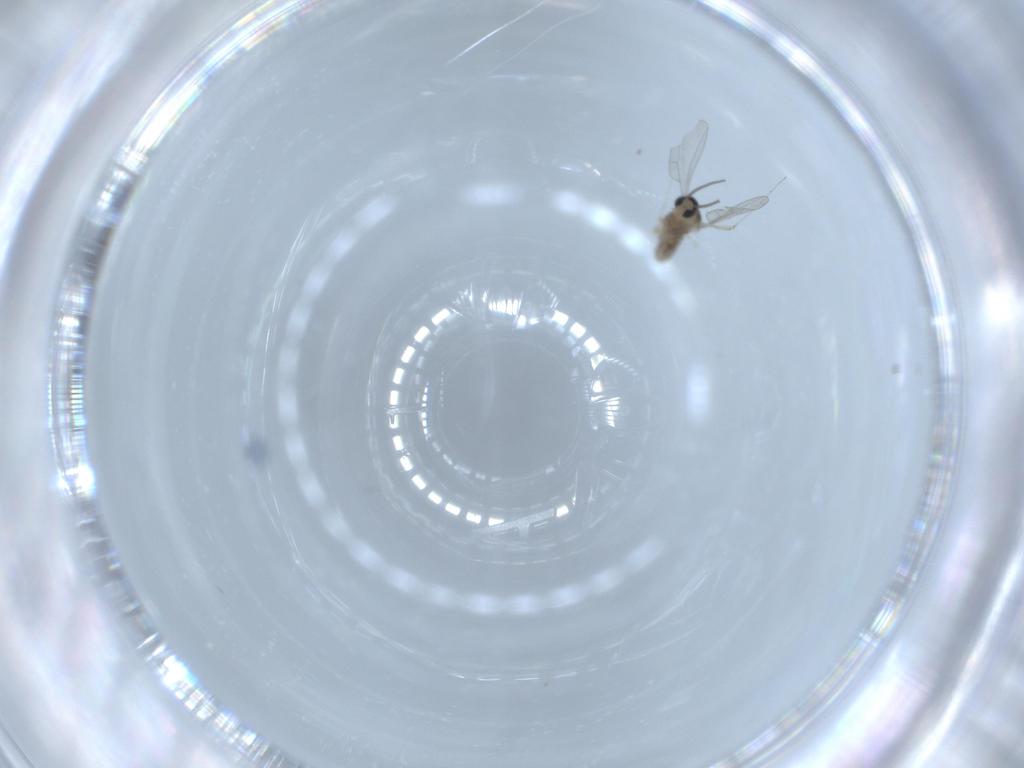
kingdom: Animalia
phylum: Arthropoda
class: Insecta
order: Diptera
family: Cecidomyiidae
